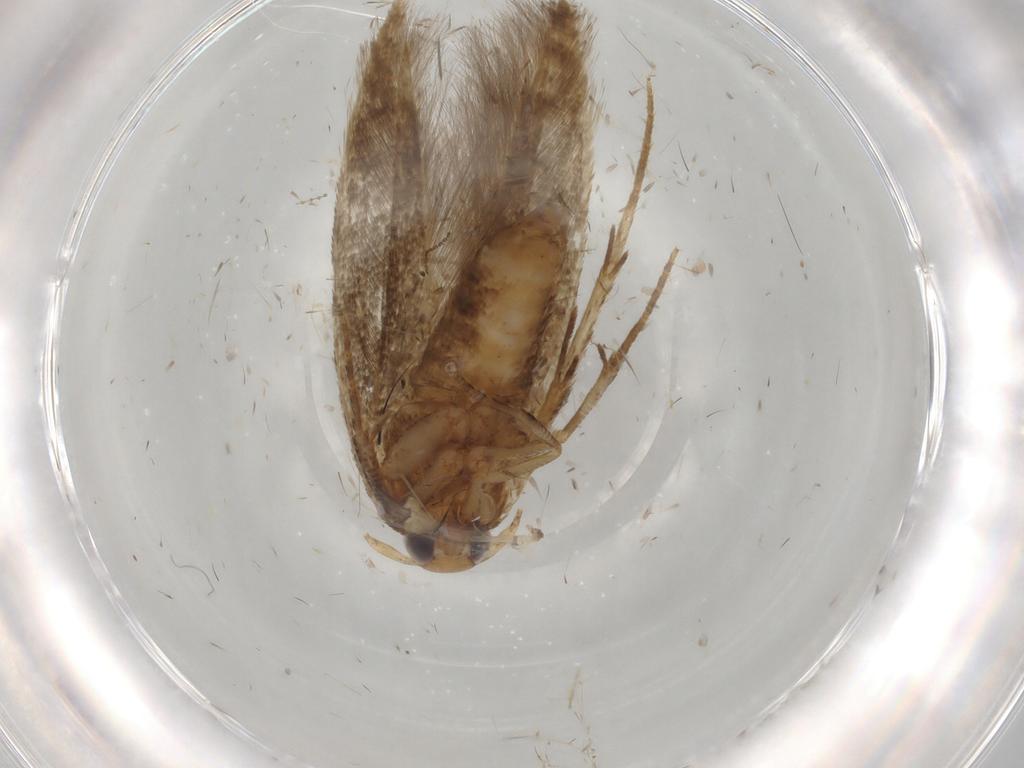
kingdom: Animalia
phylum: Arthropoda
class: Insecta
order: Lepidoptera
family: Cosmopterigidae
